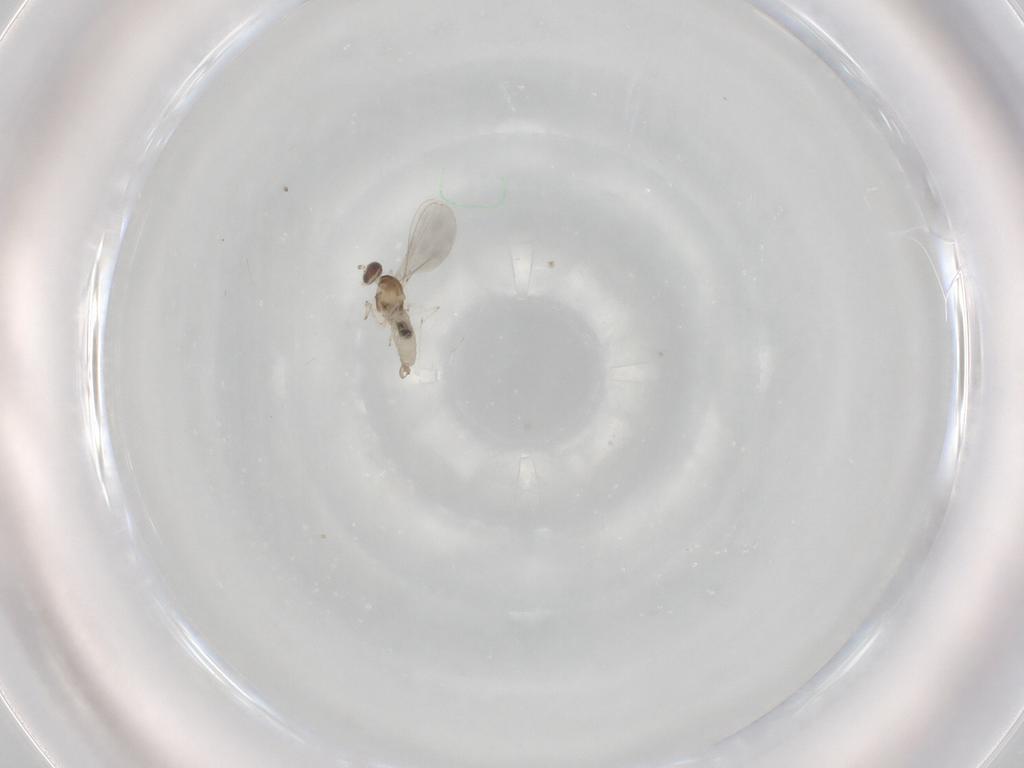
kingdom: Animalia
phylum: Arthropoda
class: Insecta
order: Diptera
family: Cecidomyiidae
